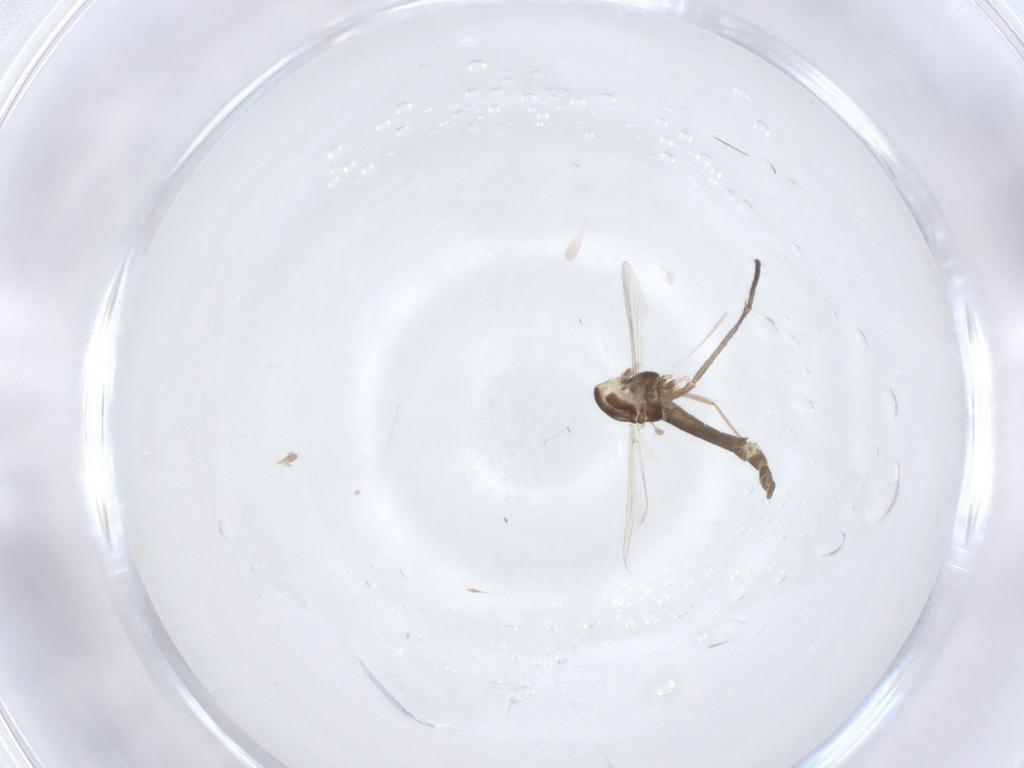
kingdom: Animalia
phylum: Arthropoda
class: Insecta
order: Diptera
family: Chironomidae
